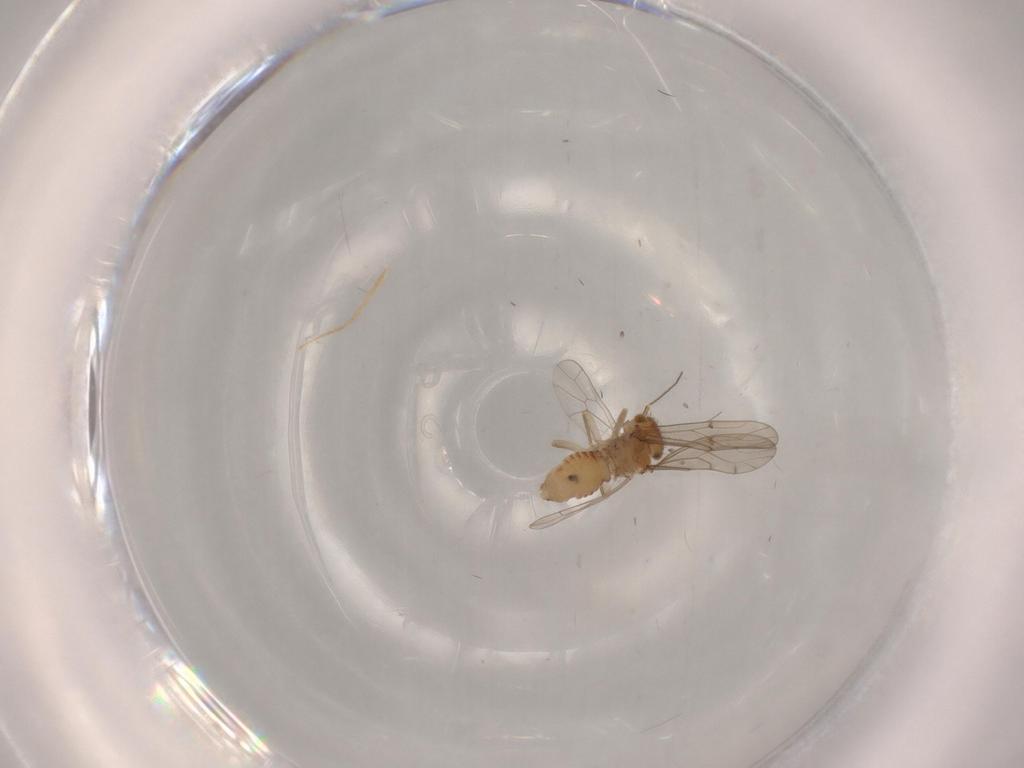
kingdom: Animalia
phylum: Arthropoda
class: Insecta
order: Psocodea
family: Ectopsocidae
